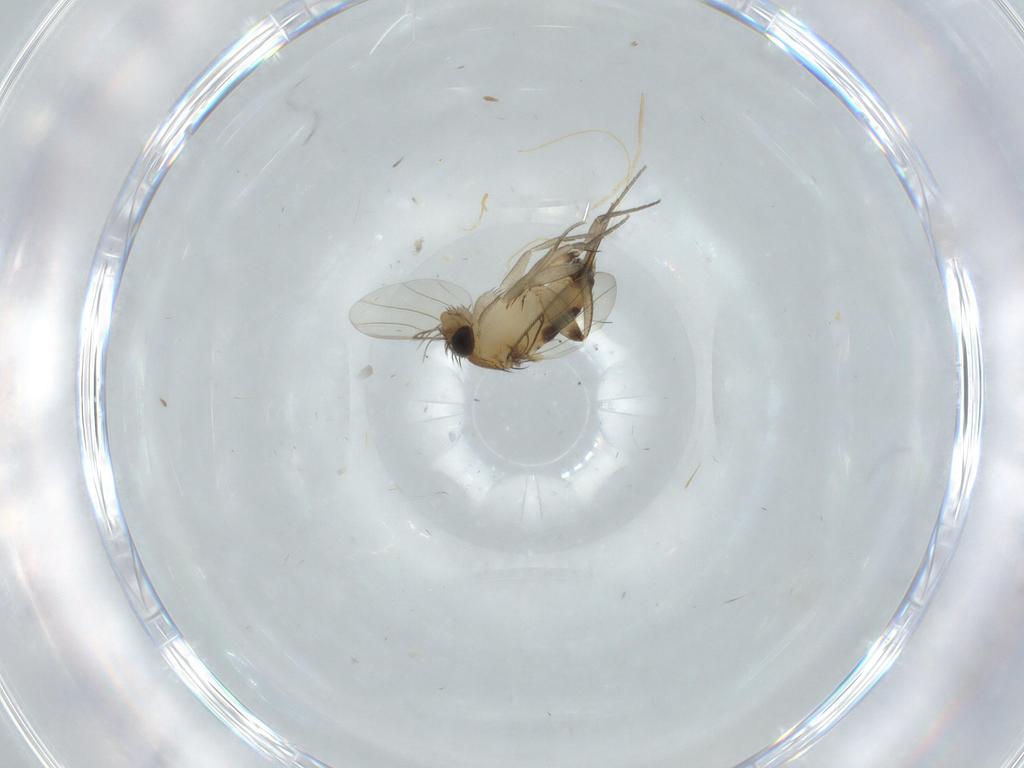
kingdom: Animalia
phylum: Arthropoda
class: Insecta
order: Diptera
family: Phoridae
